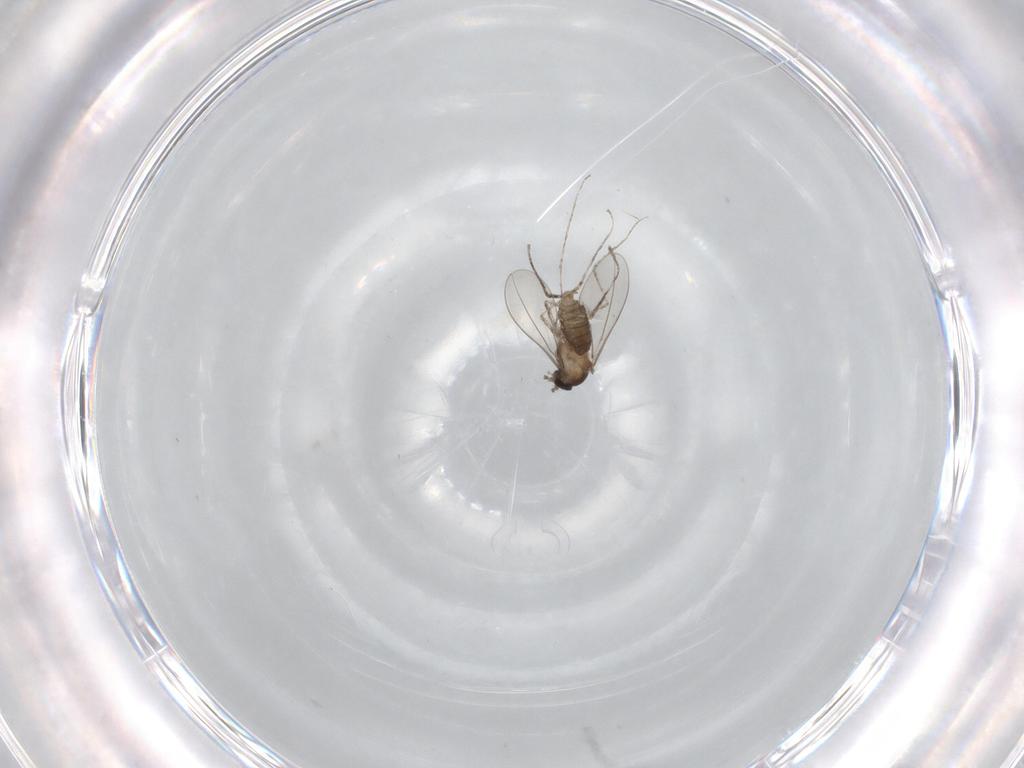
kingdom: Animalia
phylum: Arthropoda
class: Insecta
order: Diptera
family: Cecidomyiidae
